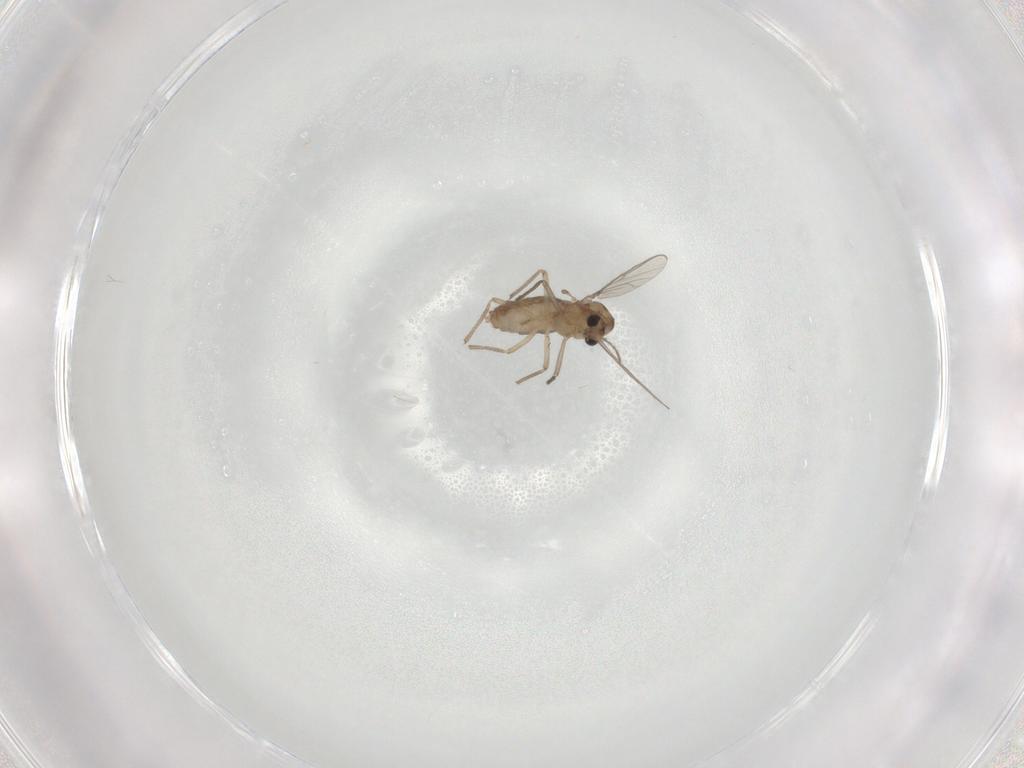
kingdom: Animalia
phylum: Arthropoda
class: Insecta
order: Diptera
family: Chironomidae
